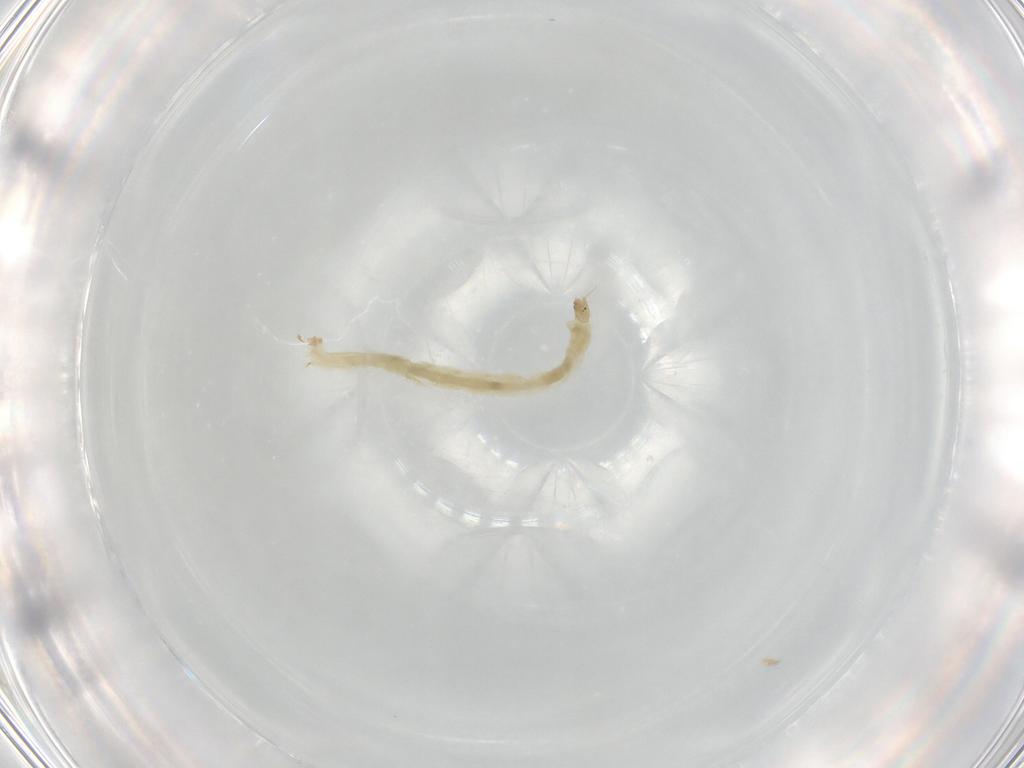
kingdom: Animalia
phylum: Arthropoda
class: Insecta
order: Diptera
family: Chironomidae
